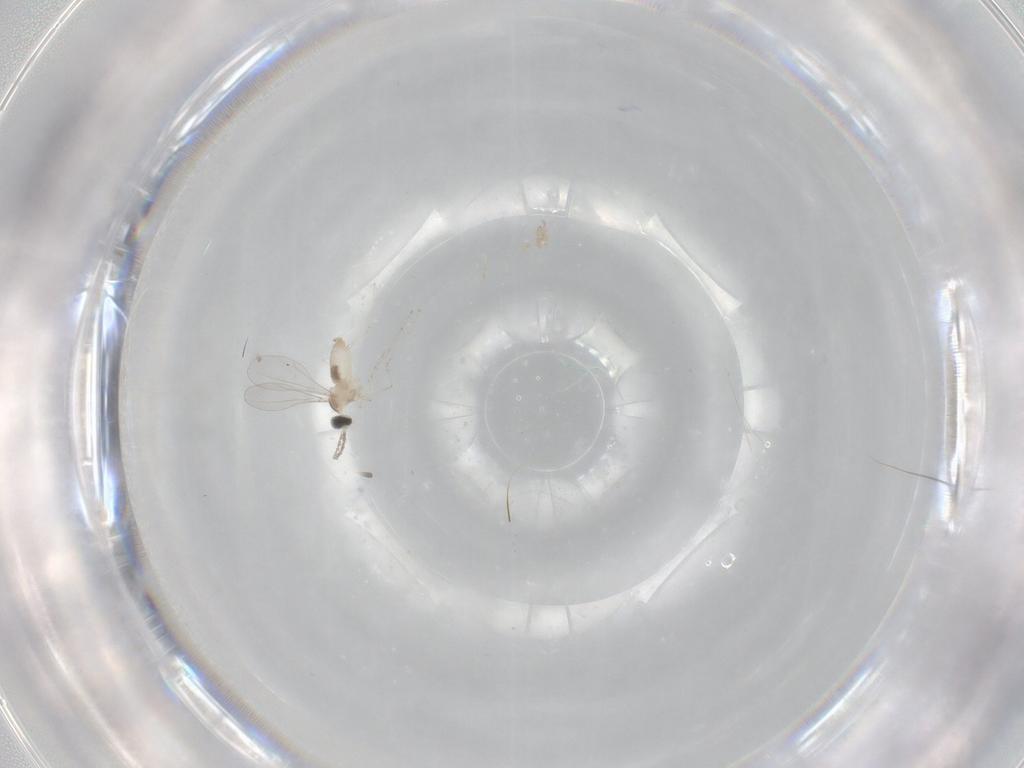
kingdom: Animalia
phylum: Arthropoda
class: Insecta
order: Diptera
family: Cecidomyiidae
